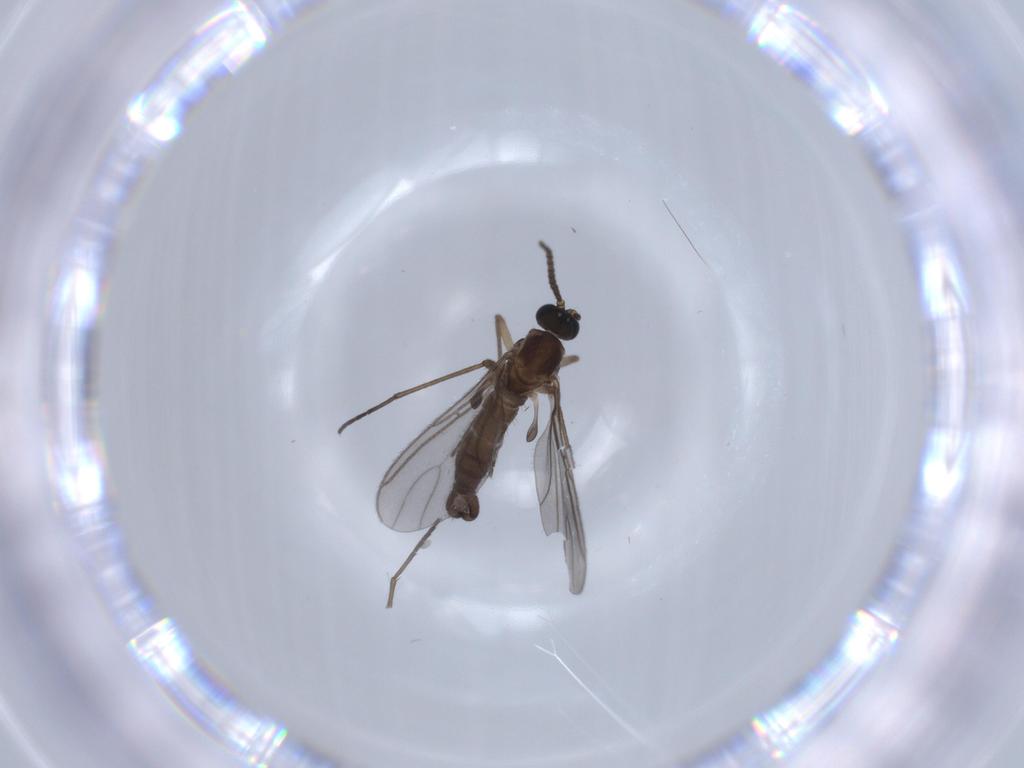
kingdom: Animalia
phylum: Arthropoda
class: Insecta
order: Diptera
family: Sciaridae
